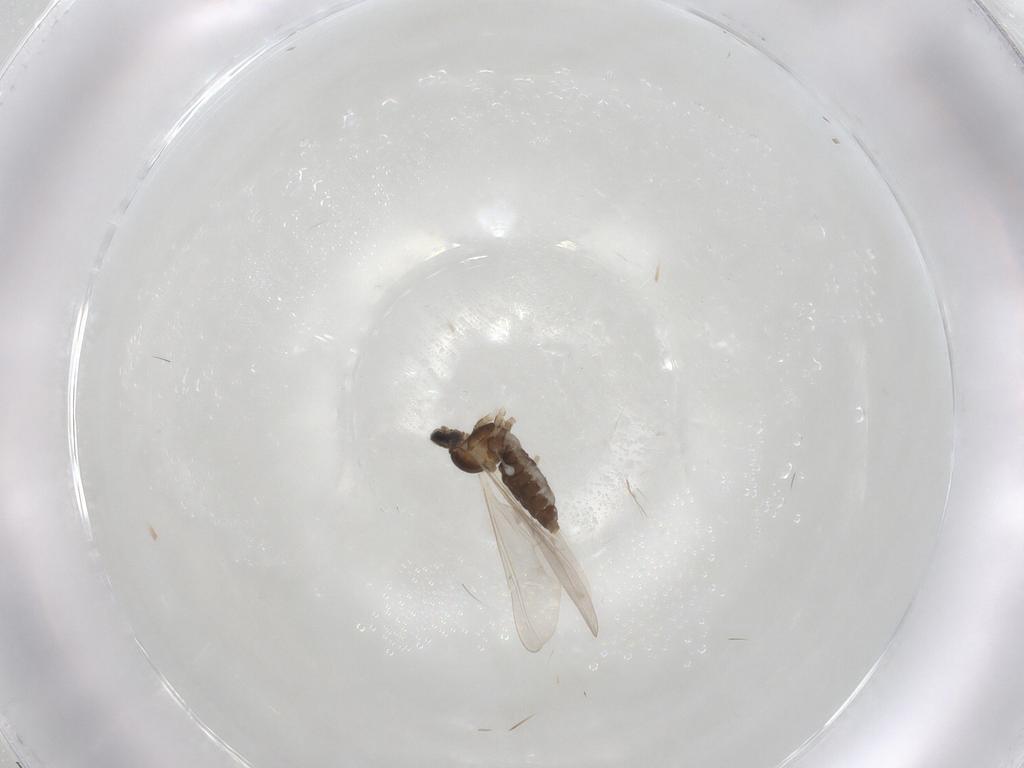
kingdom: Animalia
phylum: Arthropoda
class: Insecta
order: Diptera
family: Cecidomyiidae
